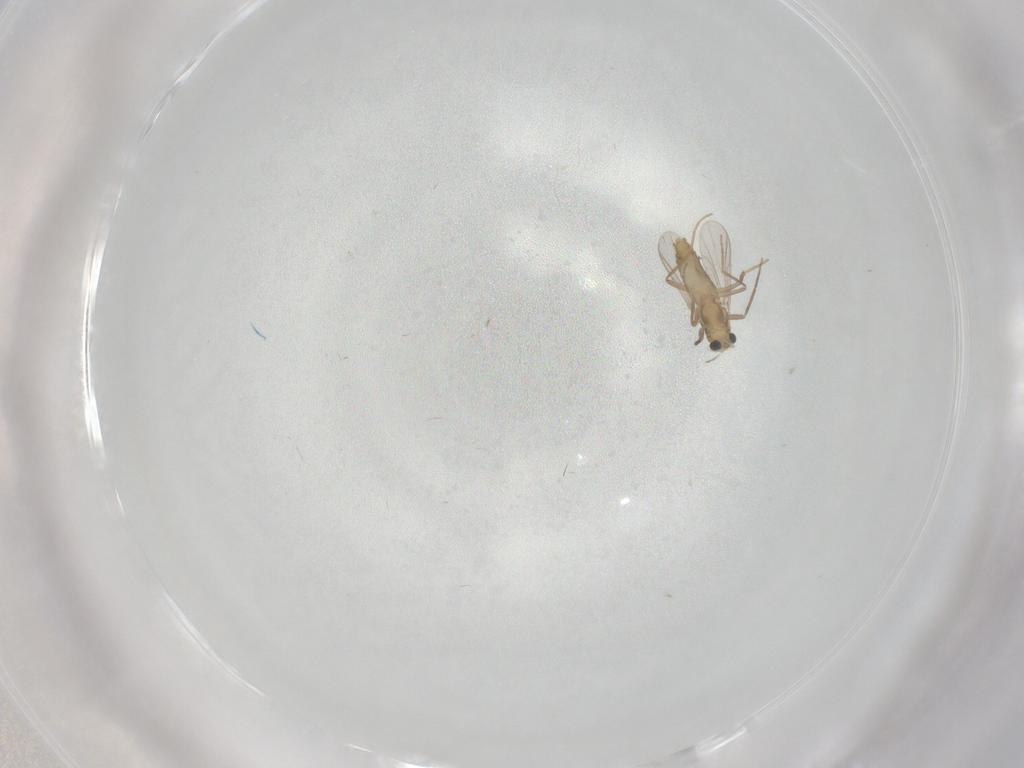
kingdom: Animalia
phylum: Arthropoda
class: Insecta
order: Diptera
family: Chironomidae
